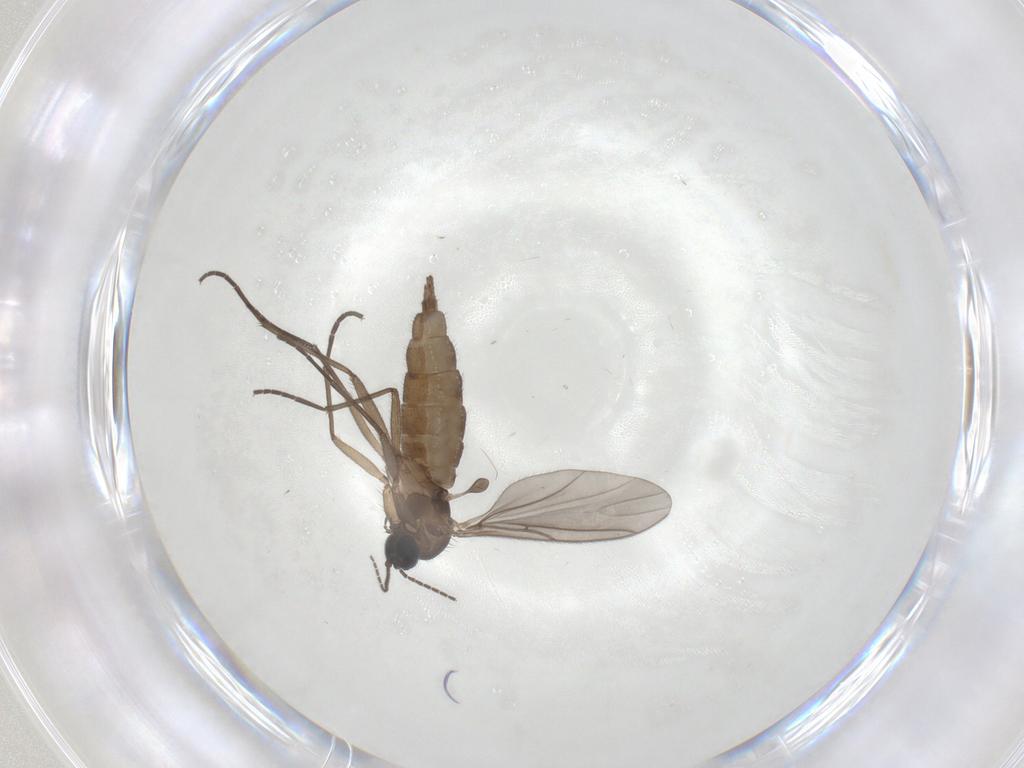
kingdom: Animalia
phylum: Arthropoda
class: Insecta
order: Diptera
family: Sciaridae
